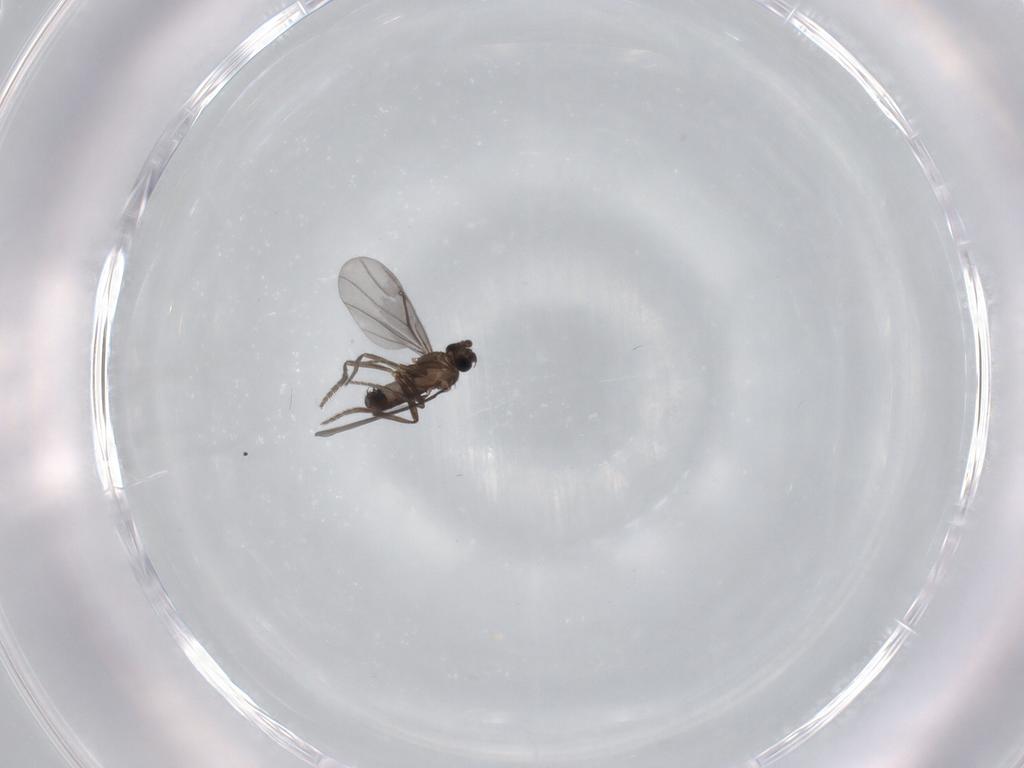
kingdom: Animalia
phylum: Arthropoda
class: Insecta
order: Diptera
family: Phoridae
